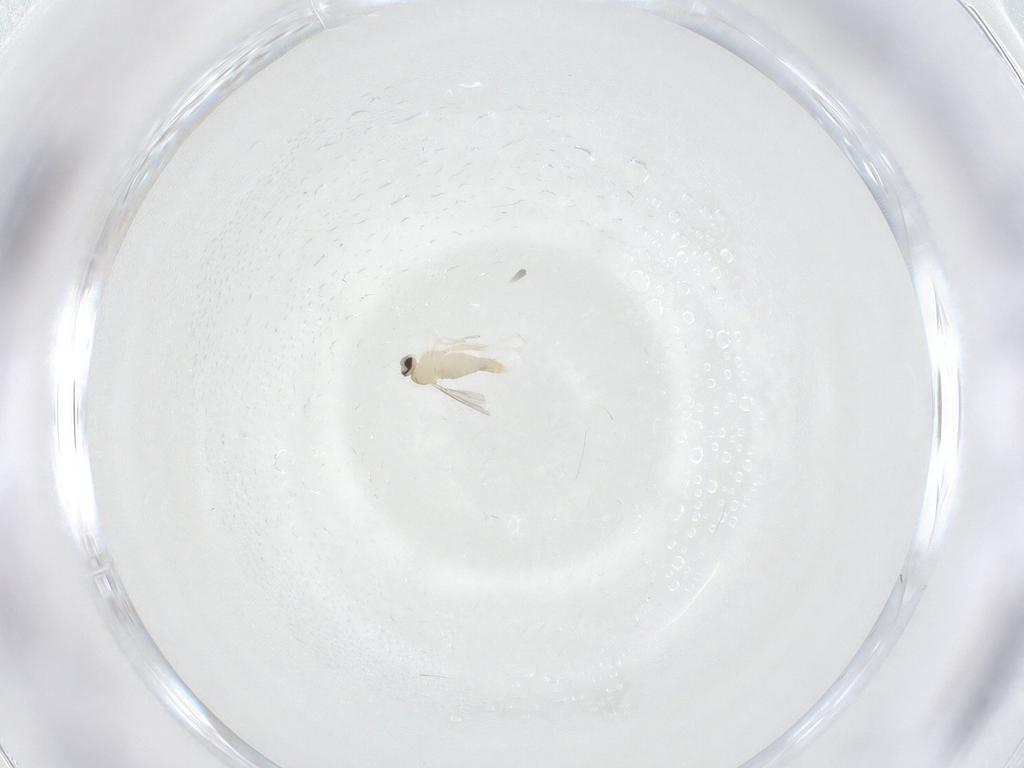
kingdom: Animalia
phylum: Arthropoda
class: Insecta
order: Diptera
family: Cecidomyiidae
